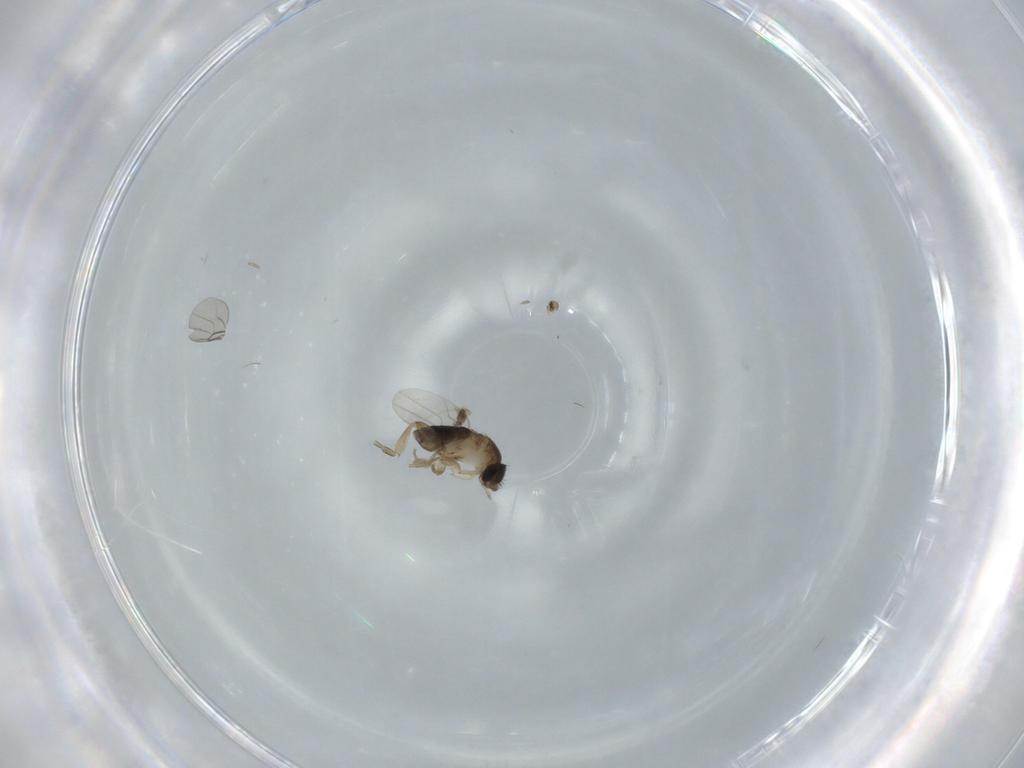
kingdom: Animalia
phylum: Arthropoda
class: Insecta
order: Diptera
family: Phoridae
